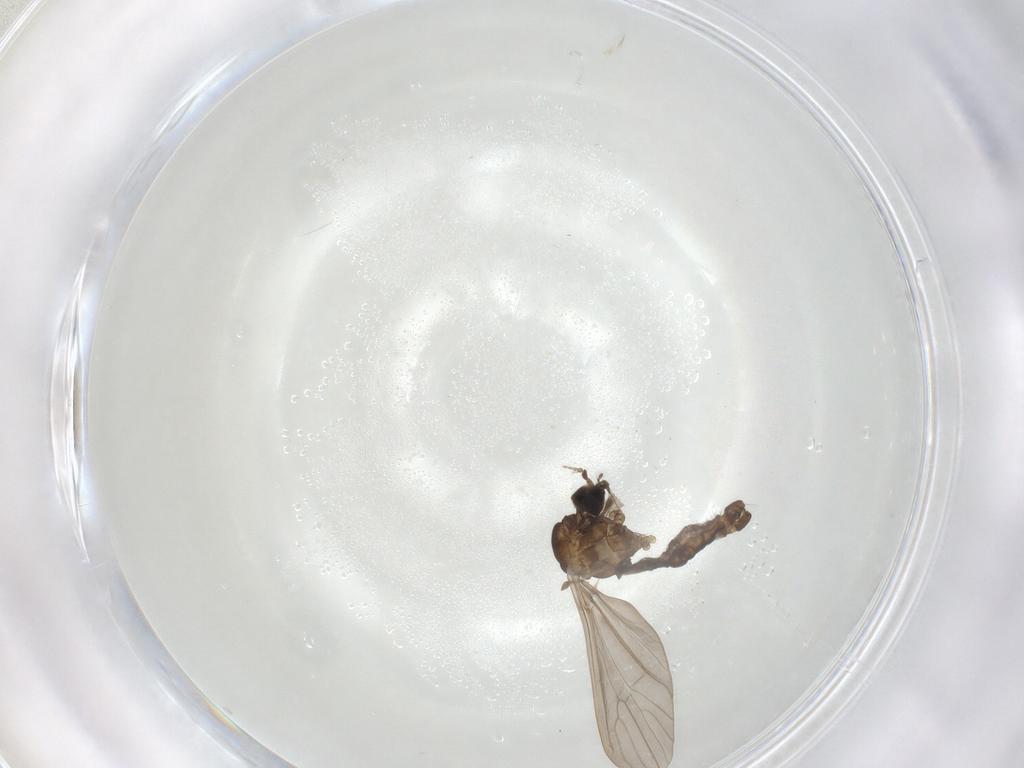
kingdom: Animalia
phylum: Arthropoda
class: Insecta
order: Diptera
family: Limoniidae
